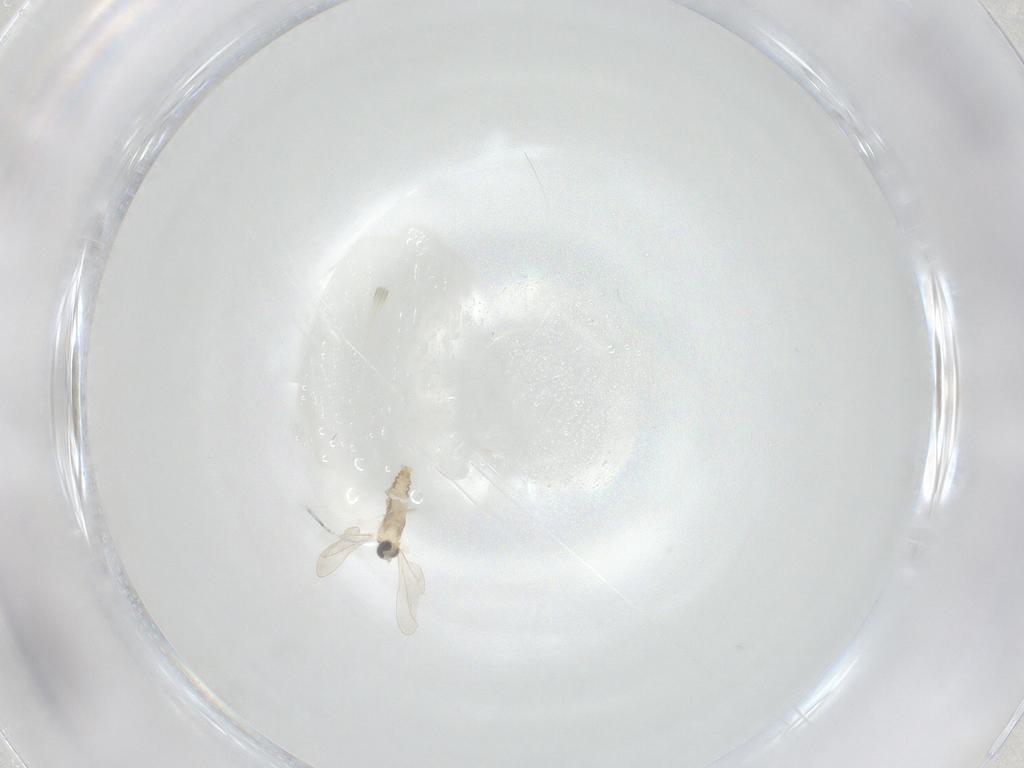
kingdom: Animalia
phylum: Arthropoda
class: Insecta
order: Diptera
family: Cecidomyiidae
